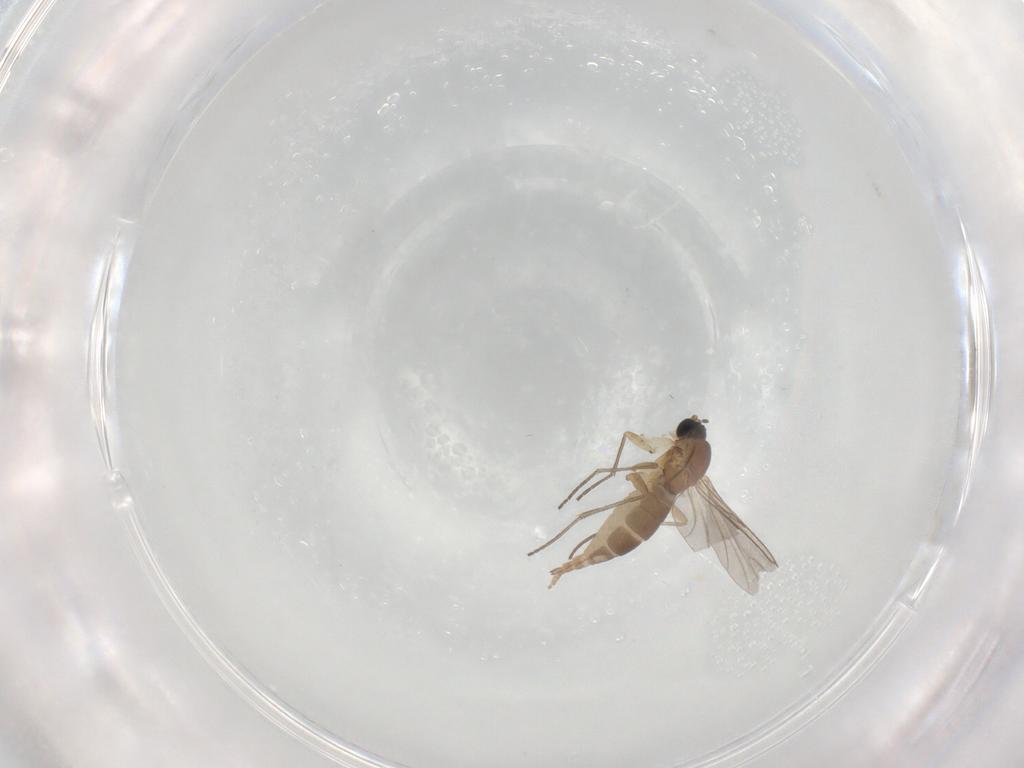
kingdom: Animalia
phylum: Arthropoda
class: Insecta
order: Diptera
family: Sciaridae
